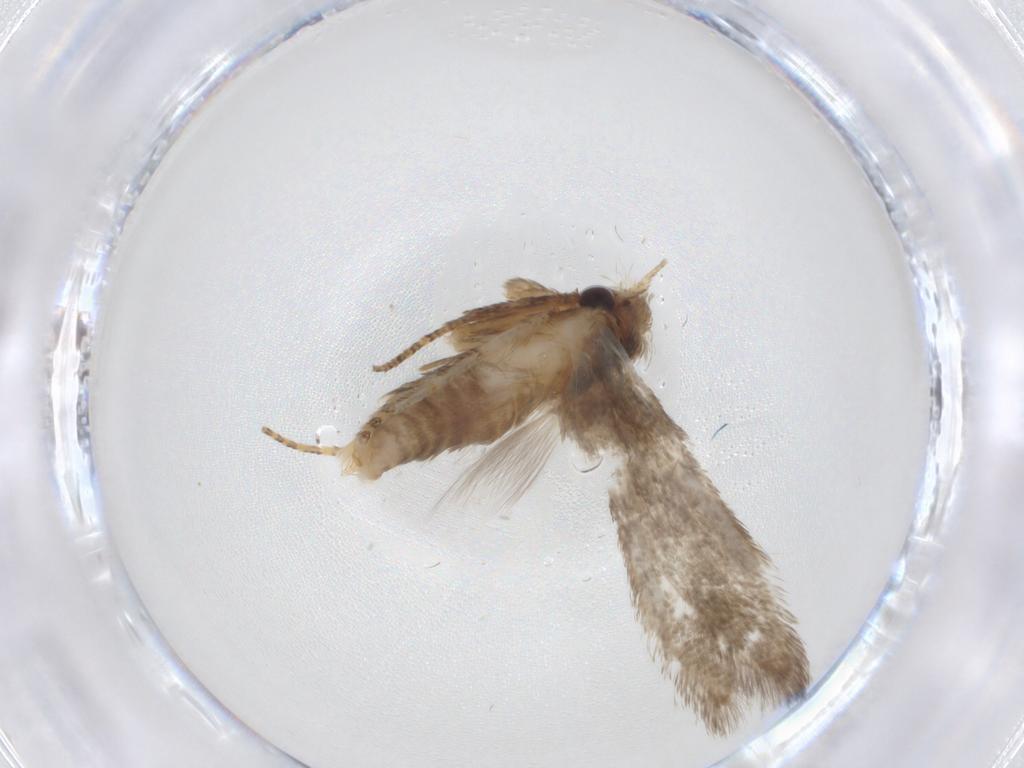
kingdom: Animalia
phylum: Arthropoda
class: Insecta
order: Lepidoptera
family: Blastobasidae
